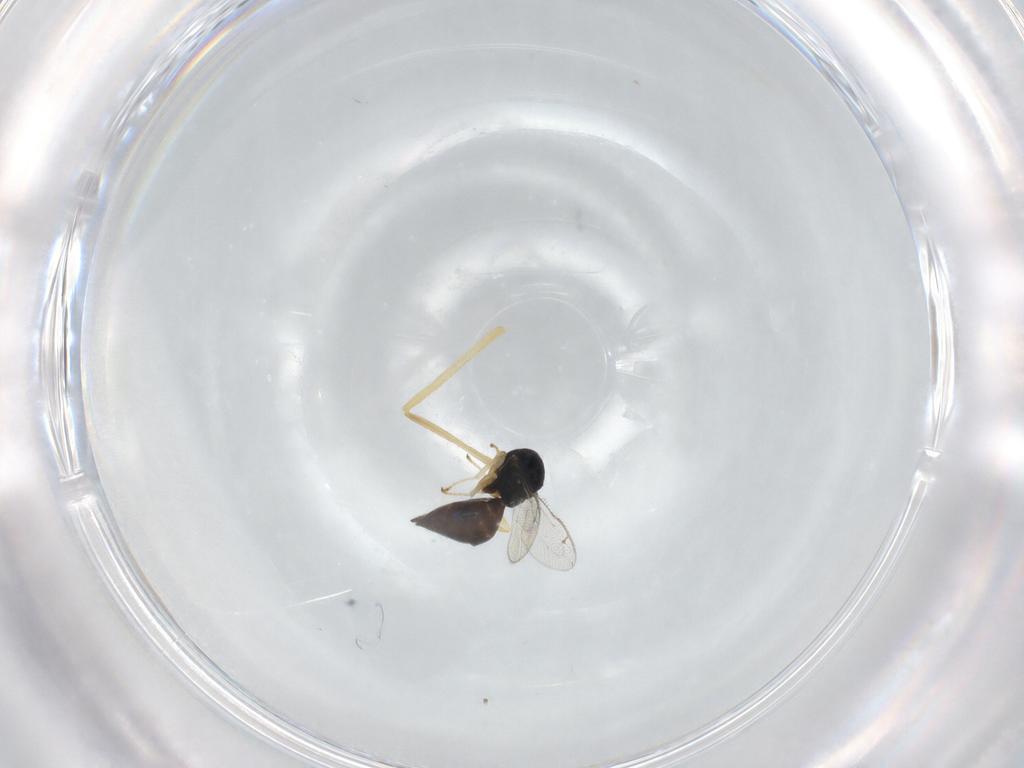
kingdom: Animalia
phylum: Arthropoda
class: Insecta
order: Hymenoptera
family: Pteromalidae
